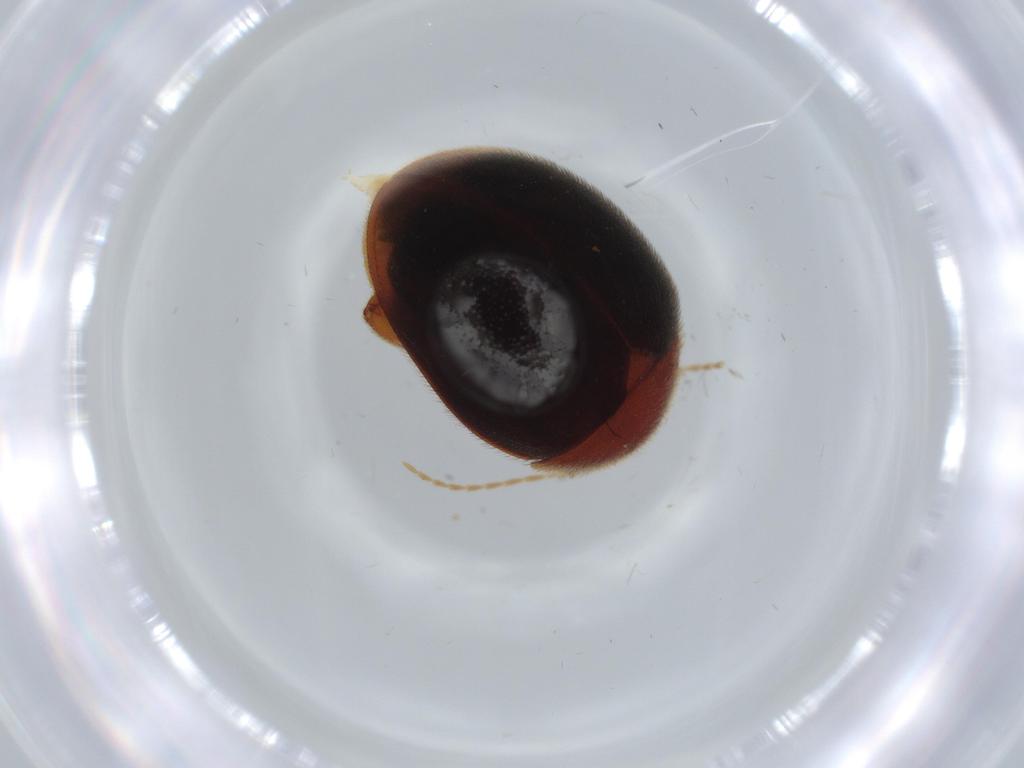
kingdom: Animalia
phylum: Arthropoda
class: Insecta
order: Coleoptera
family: Scirtidae
